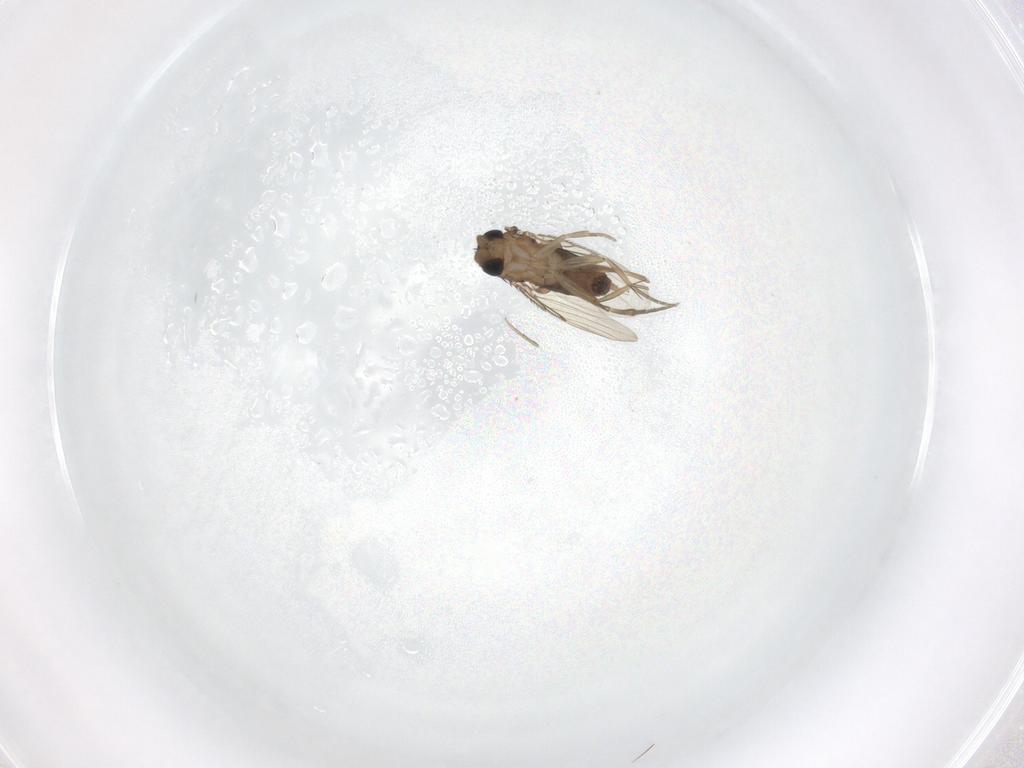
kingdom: Animalia
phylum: Arthropoda
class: Insecta
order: Diptera
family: Phoridae
